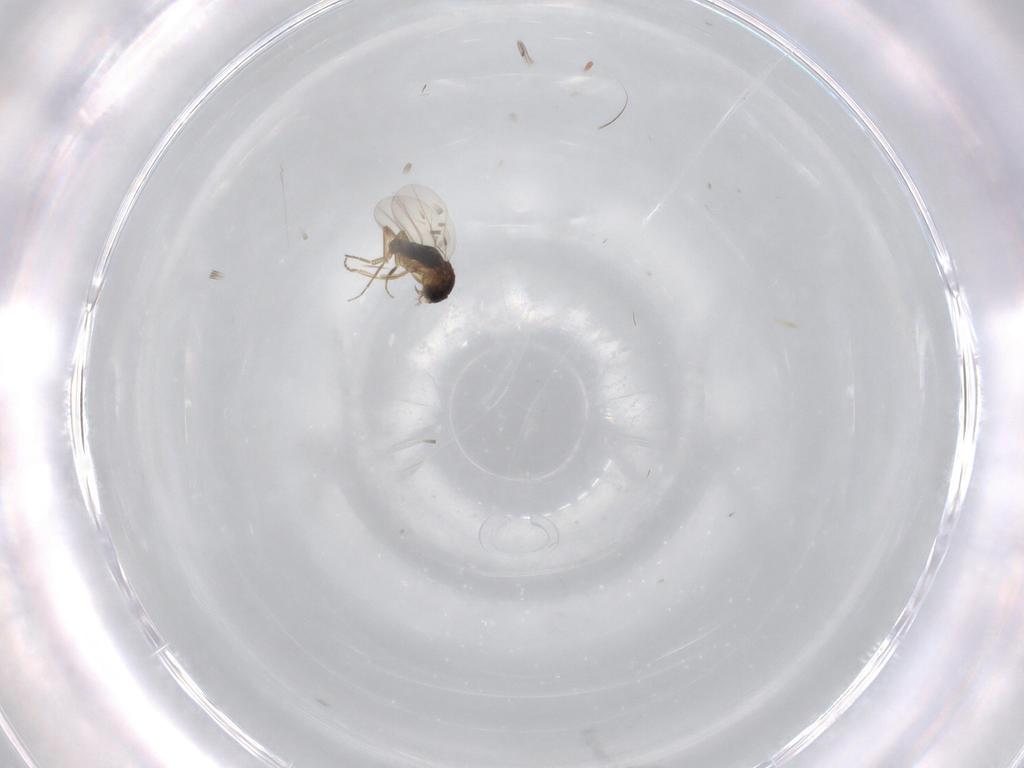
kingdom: Animalia
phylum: Arthropoda
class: Insecta
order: Diptera
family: Phoridae
